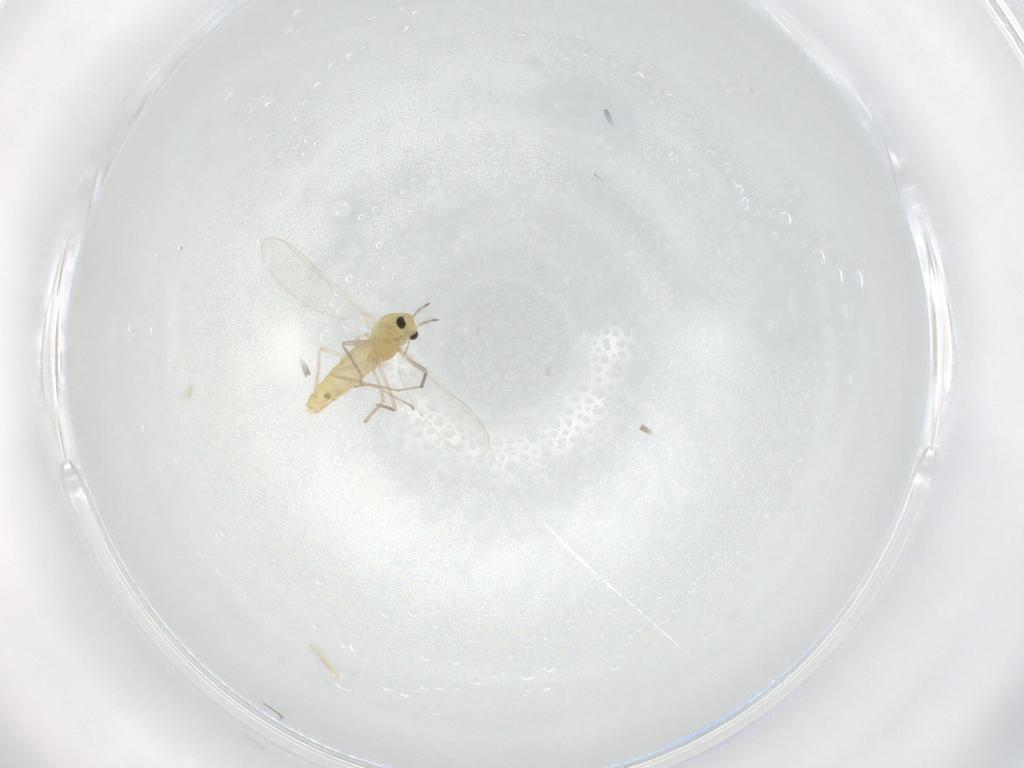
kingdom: Animalia
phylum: Arthropoda
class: Insecta
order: Diptera
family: Chironomidae
